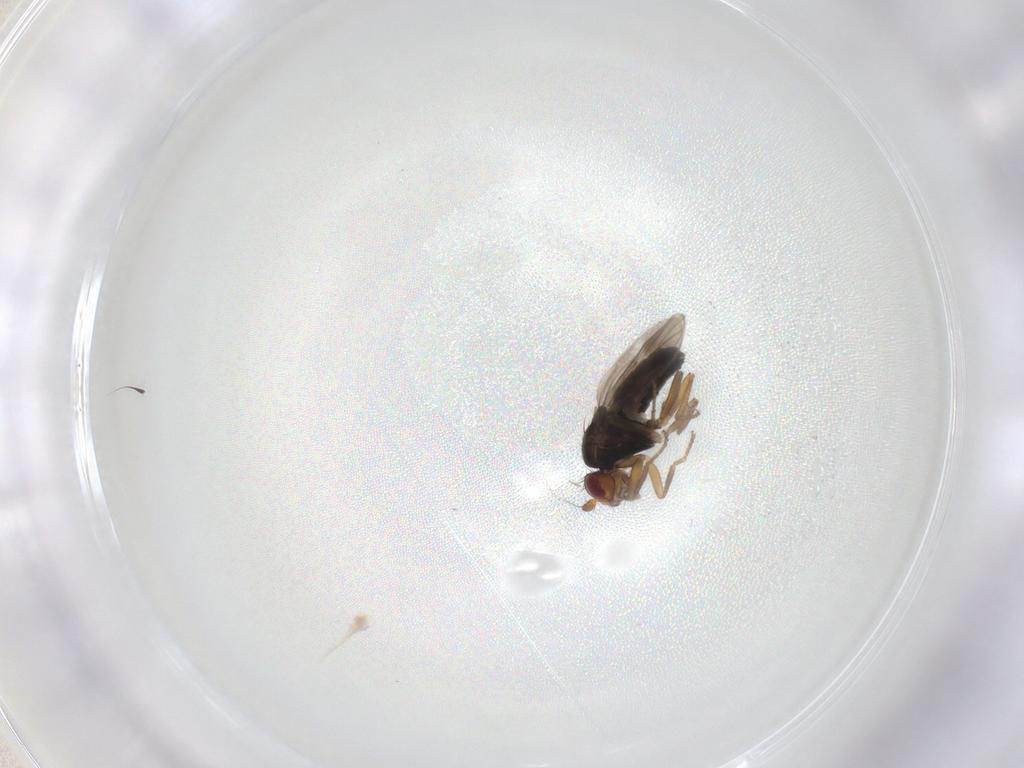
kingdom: Animalia
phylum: Arthropoda
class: Insecta
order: Diptera
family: Sphaeroceridae
